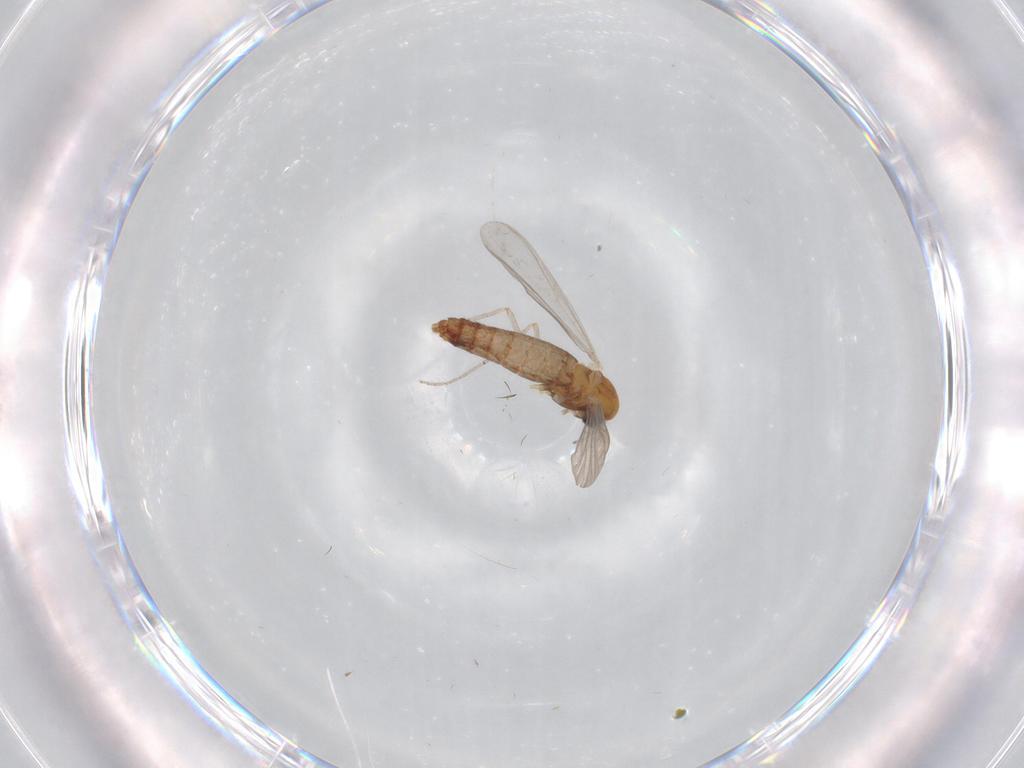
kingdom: Animalia
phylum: Arthropoda
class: Insecta
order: Diptera
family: Chironomidae
